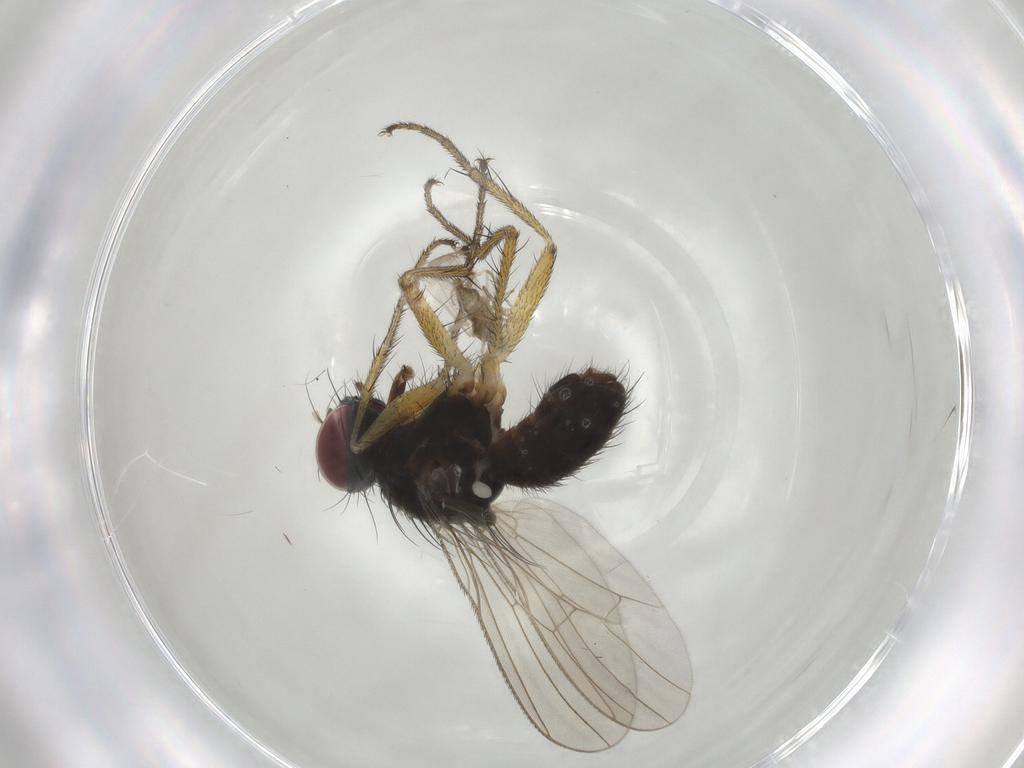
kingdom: Animalia
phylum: Arthropoda
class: Insecta
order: Diptera
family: Muscidae
